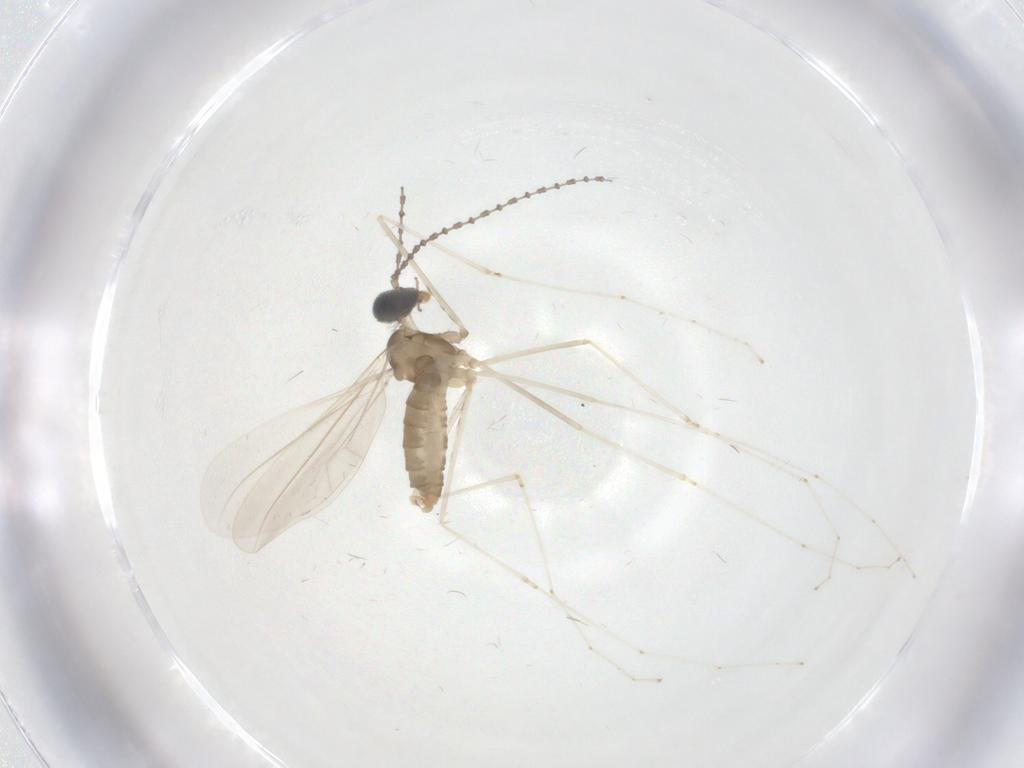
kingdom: Animalia
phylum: Arthropoda
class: Insecta
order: Diptera
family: Cecidomyiidae
